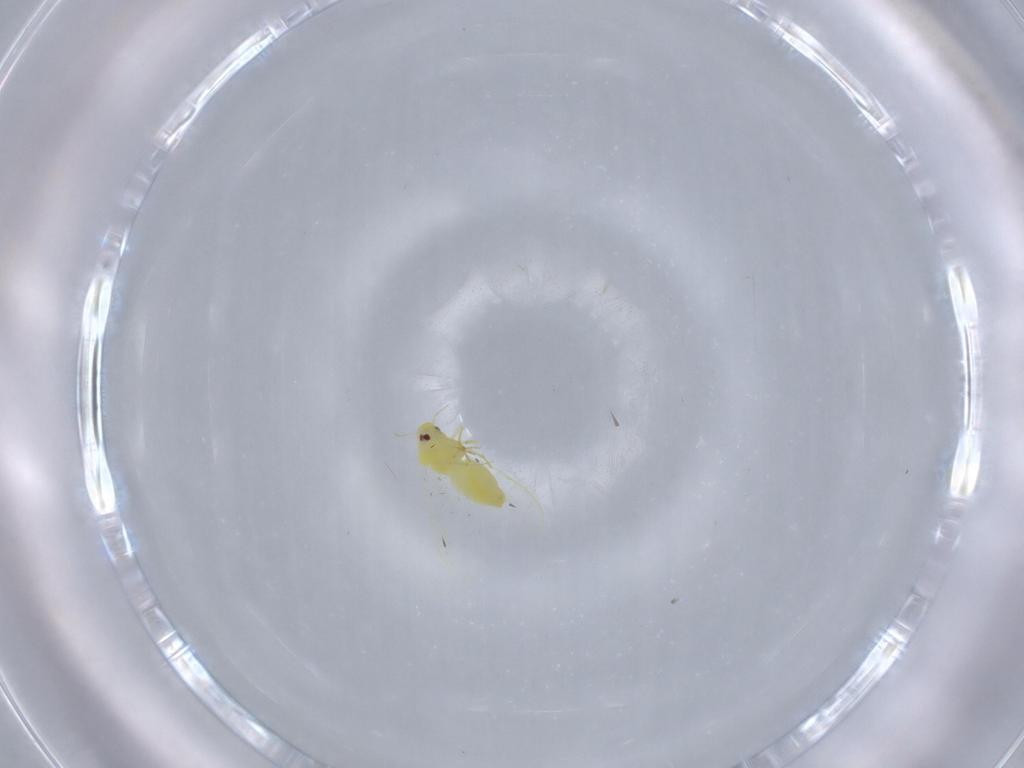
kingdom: Animalia
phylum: Arthropoda
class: Insecta
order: Hemiptera
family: Aleyrodidae
